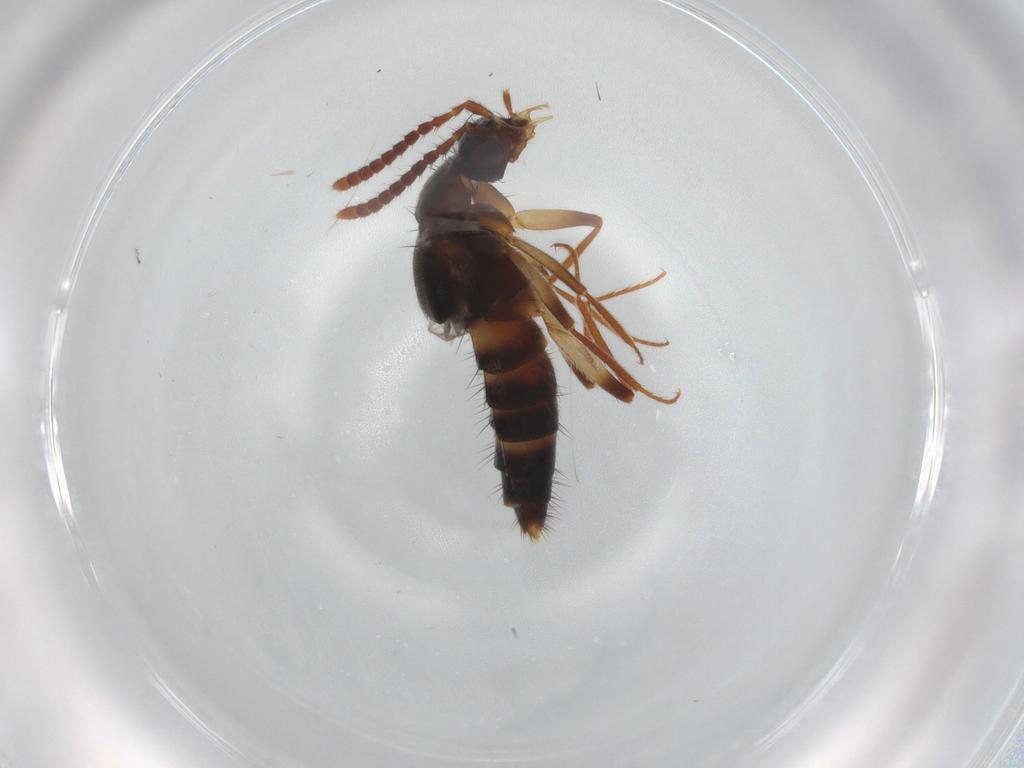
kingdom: Animalia
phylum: Arthropoda
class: Insecta
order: Coleoptera
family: Staphylinidae
